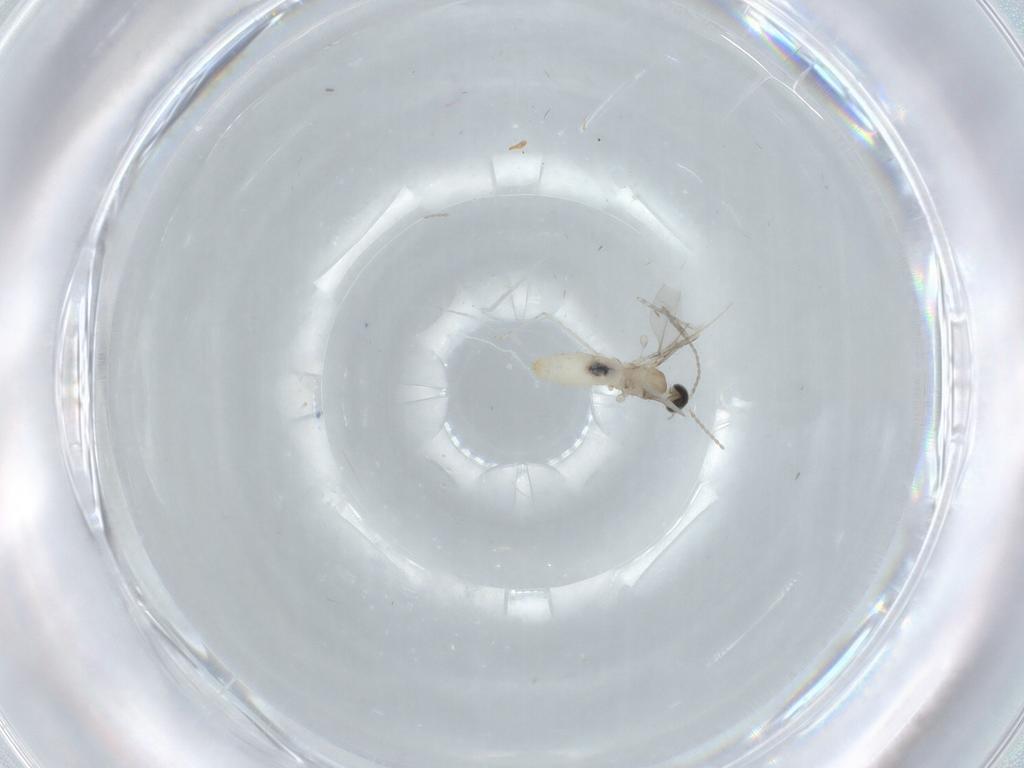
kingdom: Animalia
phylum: Arthropoda
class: Insecta
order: Diptera
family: Cecidomyiidae
